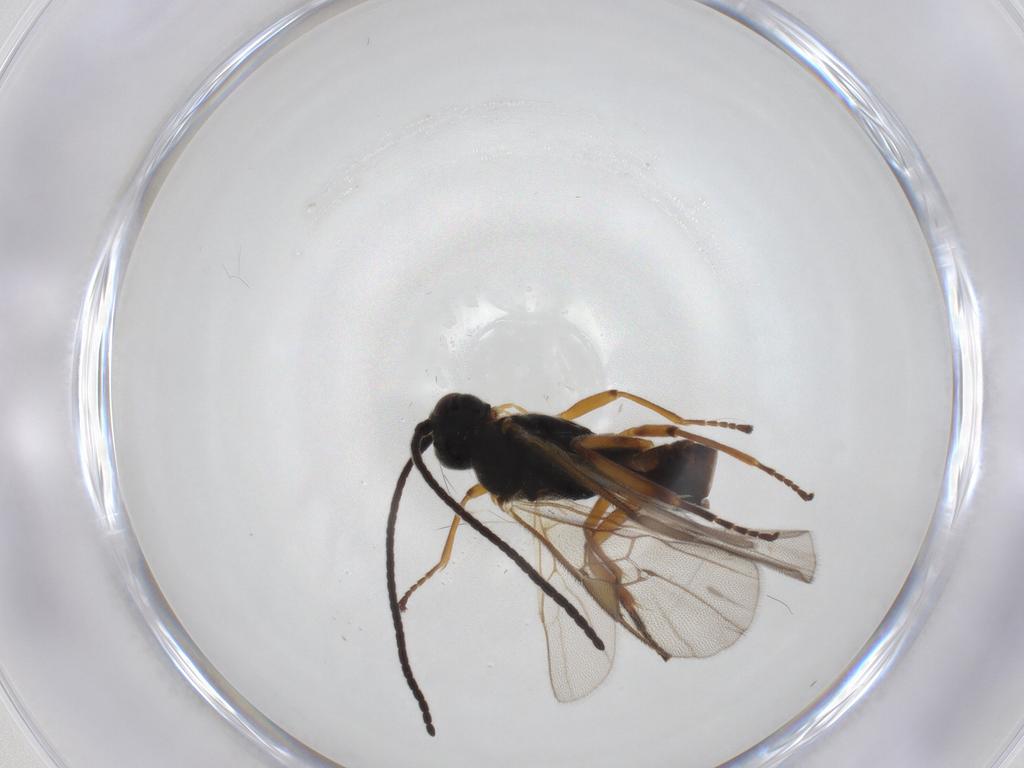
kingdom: Animalia
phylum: Arthropoda
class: Insecta
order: Hymenoptera
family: Braconidae
